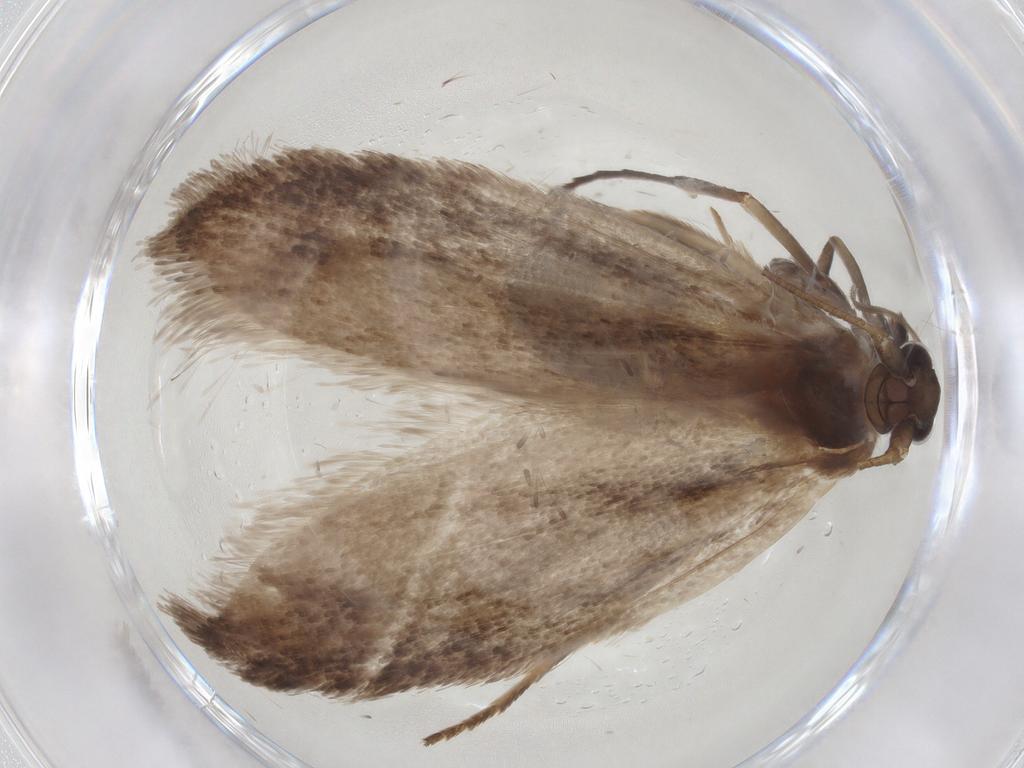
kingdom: Animalia
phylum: Arthropoda
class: Insecta
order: Lepidoptera
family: Roeslerstammiidae
